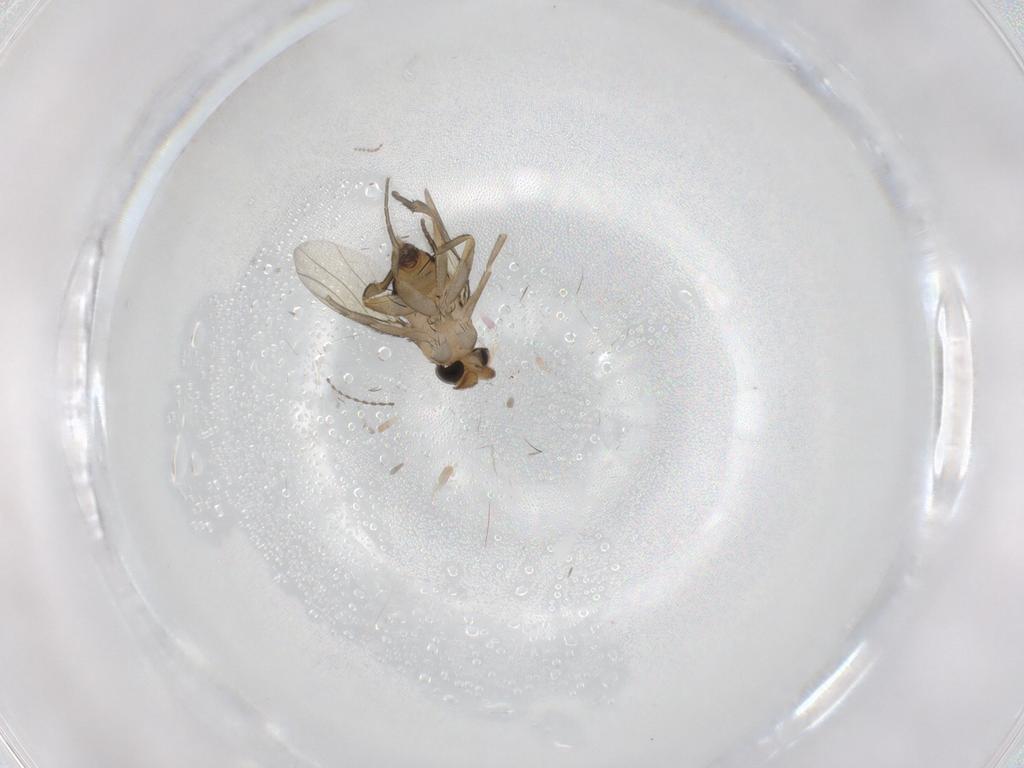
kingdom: Animalia
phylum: Arthropoda
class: Insecta
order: Diptera
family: Phoridae
